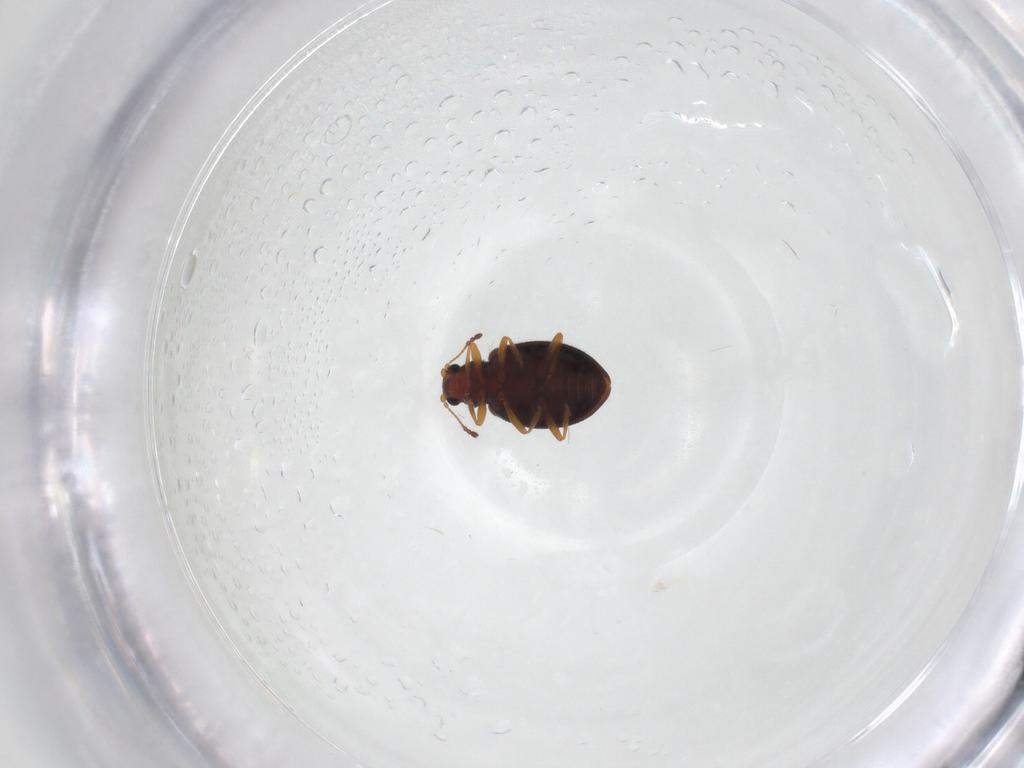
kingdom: Animalia
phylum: Arthropoda
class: Insecta
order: Coleoptera
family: Latridiidae
